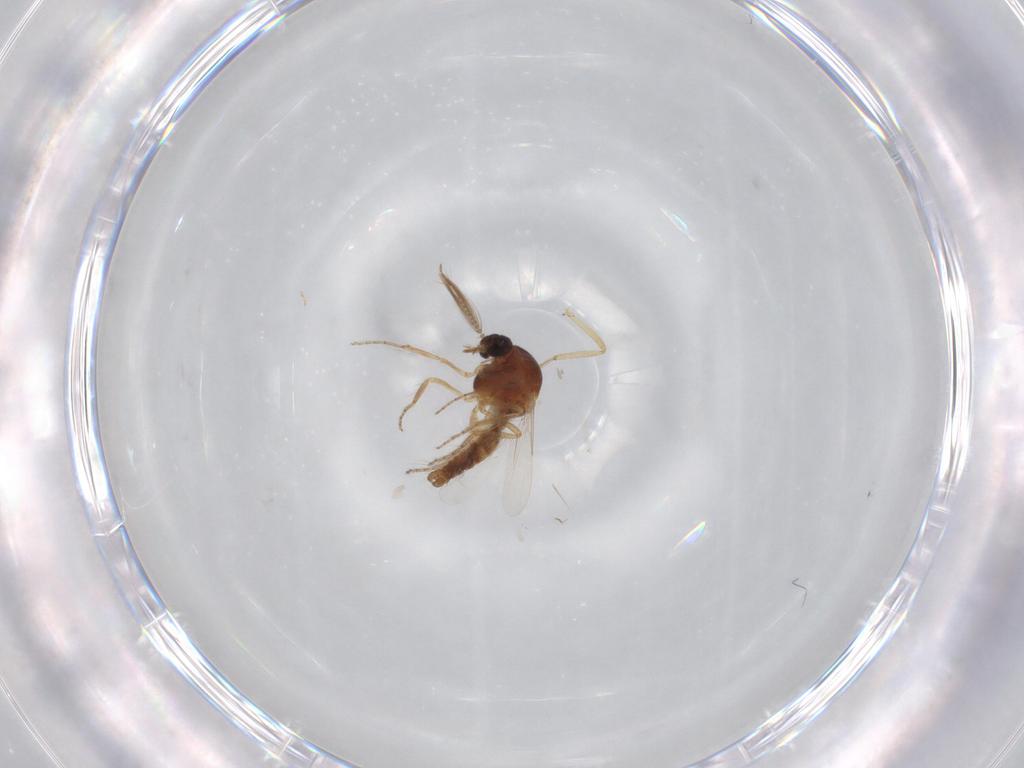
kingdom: Animalia
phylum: Arthropoda
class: Insecta
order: Diptera
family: Ceratopogonidae
